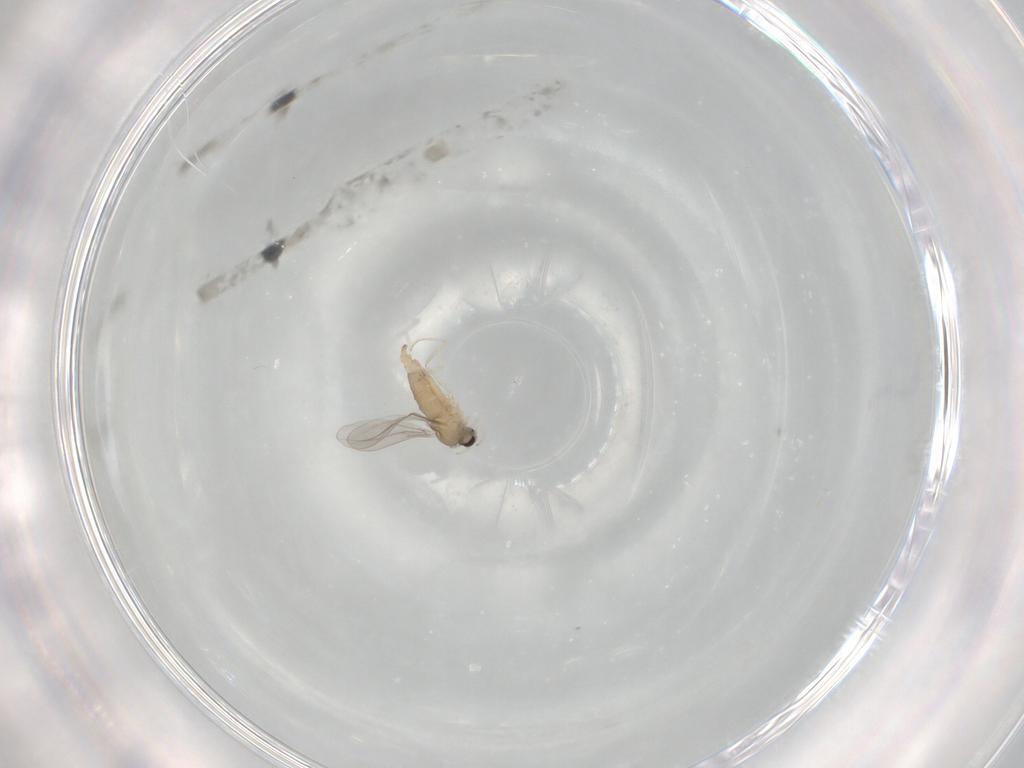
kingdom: Animalia
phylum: Arthropoda
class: Insecta
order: Diptera
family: Cecidomyiidae
